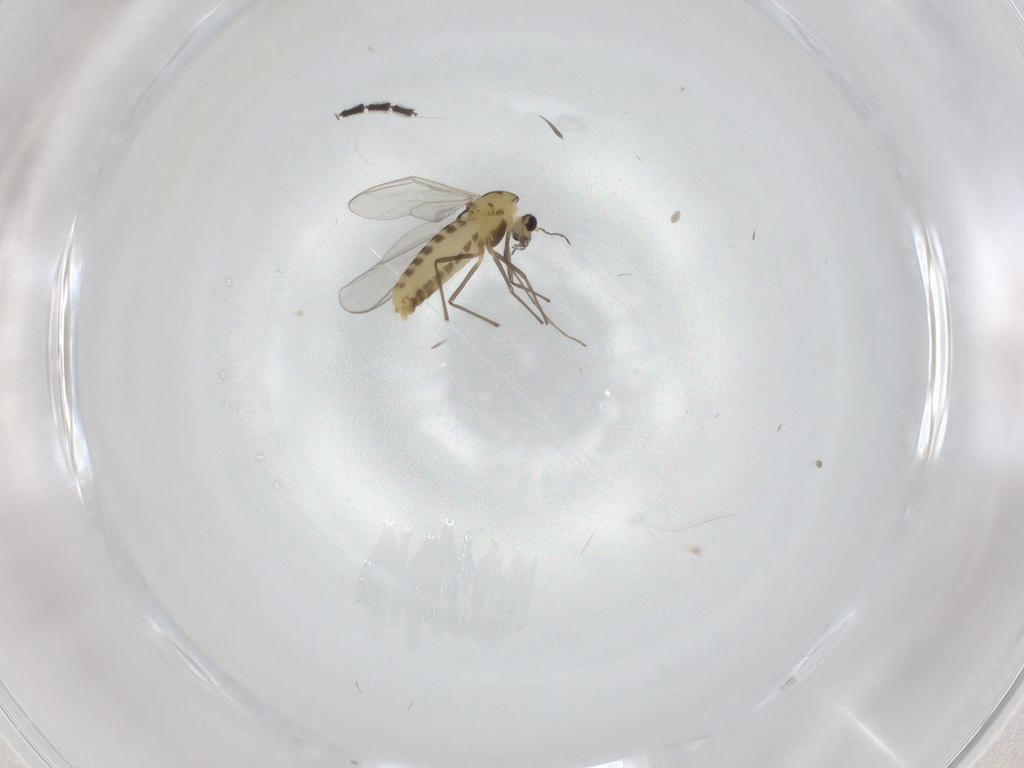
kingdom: Animalia
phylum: Arthropoda
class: Insecta
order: Diptera
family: Chironomidae
